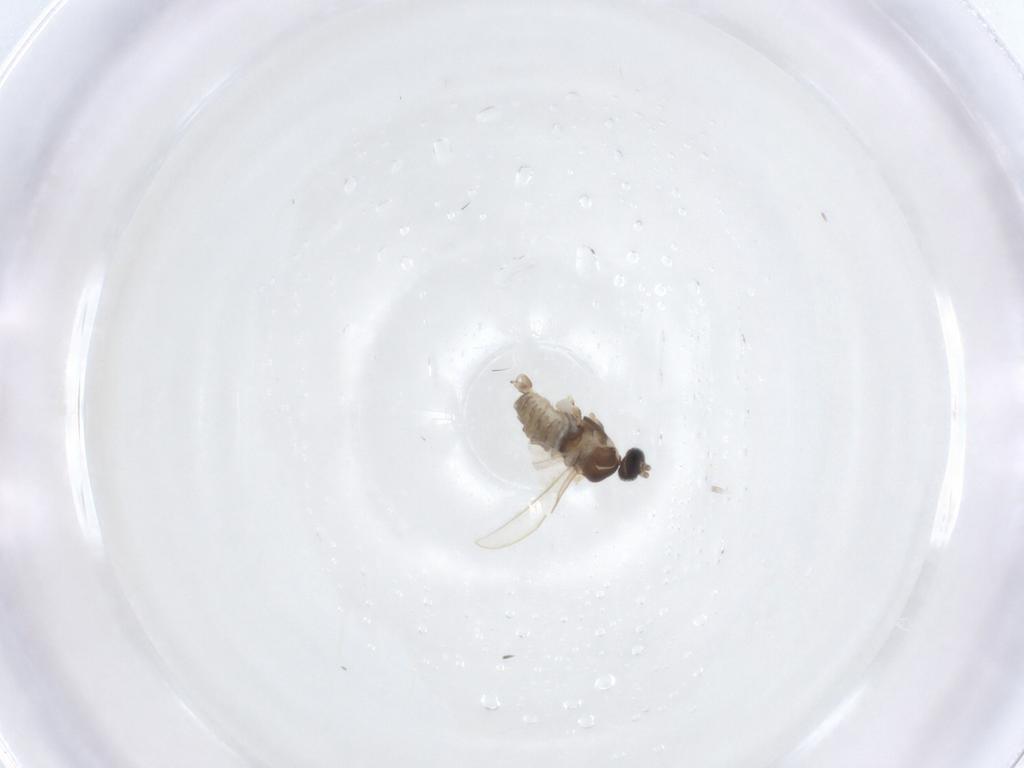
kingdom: Animalia
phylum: Arthropoda
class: Insecta
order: Diptera
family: Cecidomyiidae
